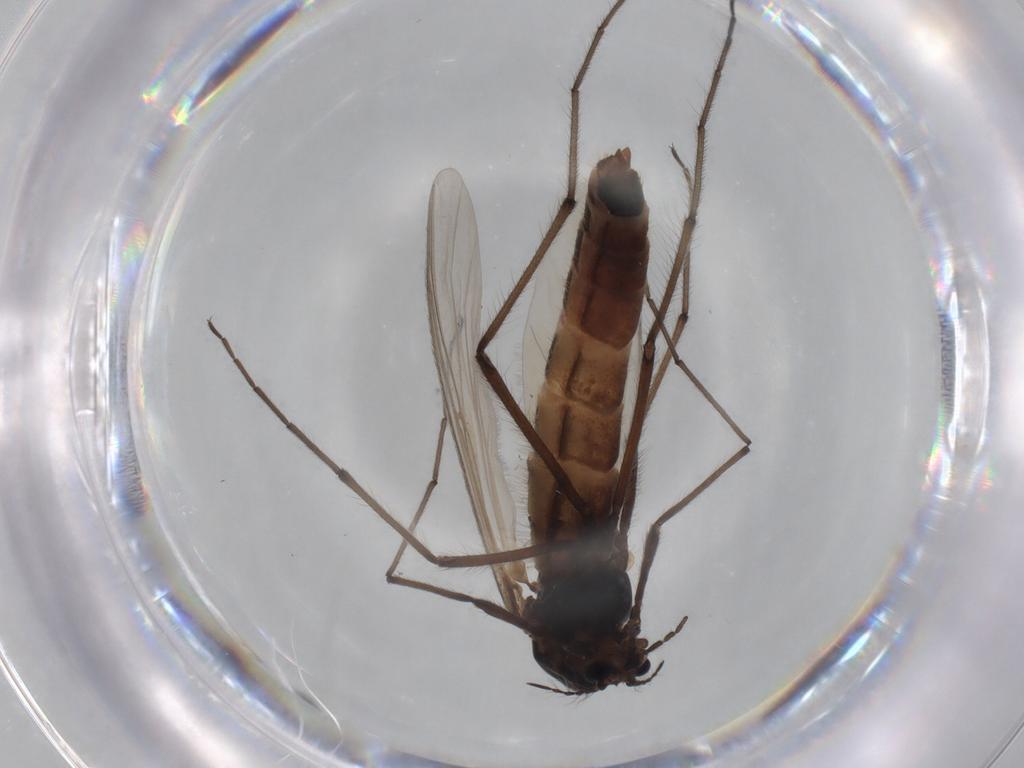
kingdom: Animalia
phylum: Arthropoda
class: Insecta
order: Diptera
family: Chironomidae
